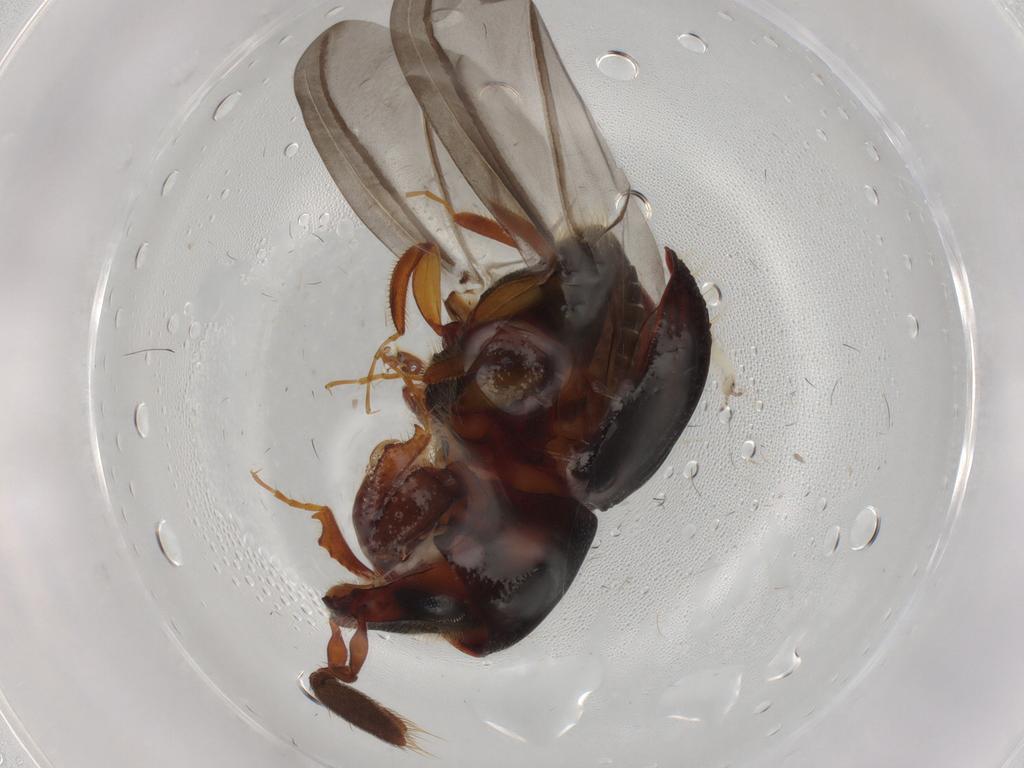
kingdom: Animalia
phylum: Arthropoda
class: Insecta
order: Coleoptera
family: Curculionidae
